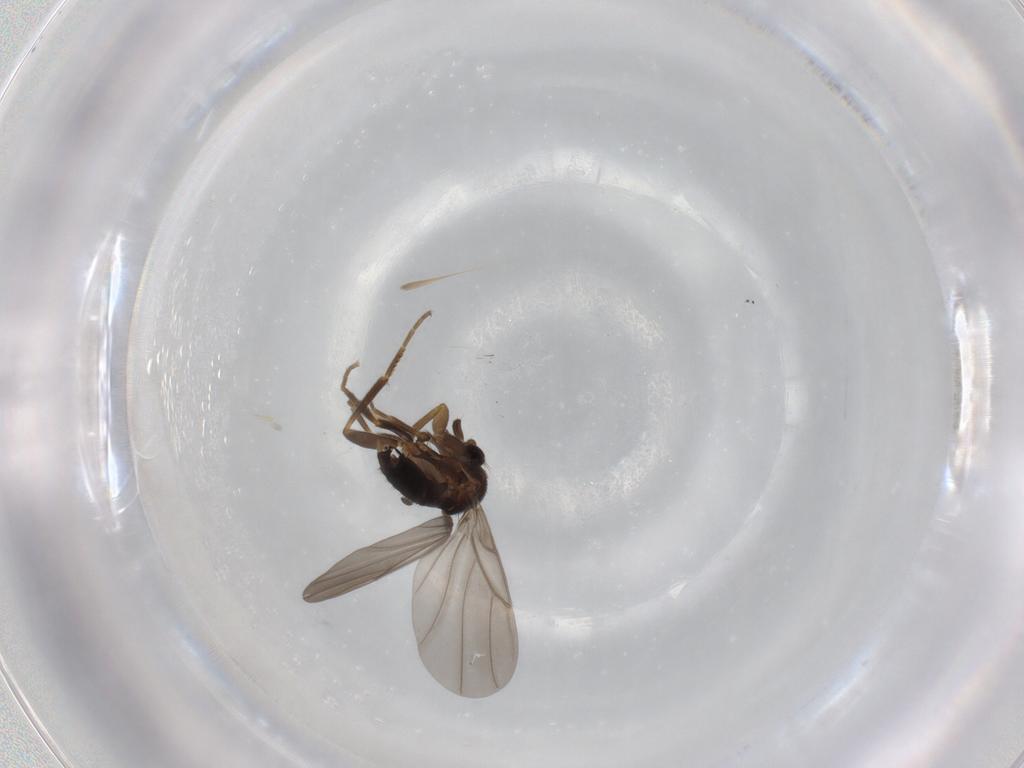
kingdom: Animalia
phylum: Arthropoda
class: Insecta
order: Diptera
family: Phoridae
